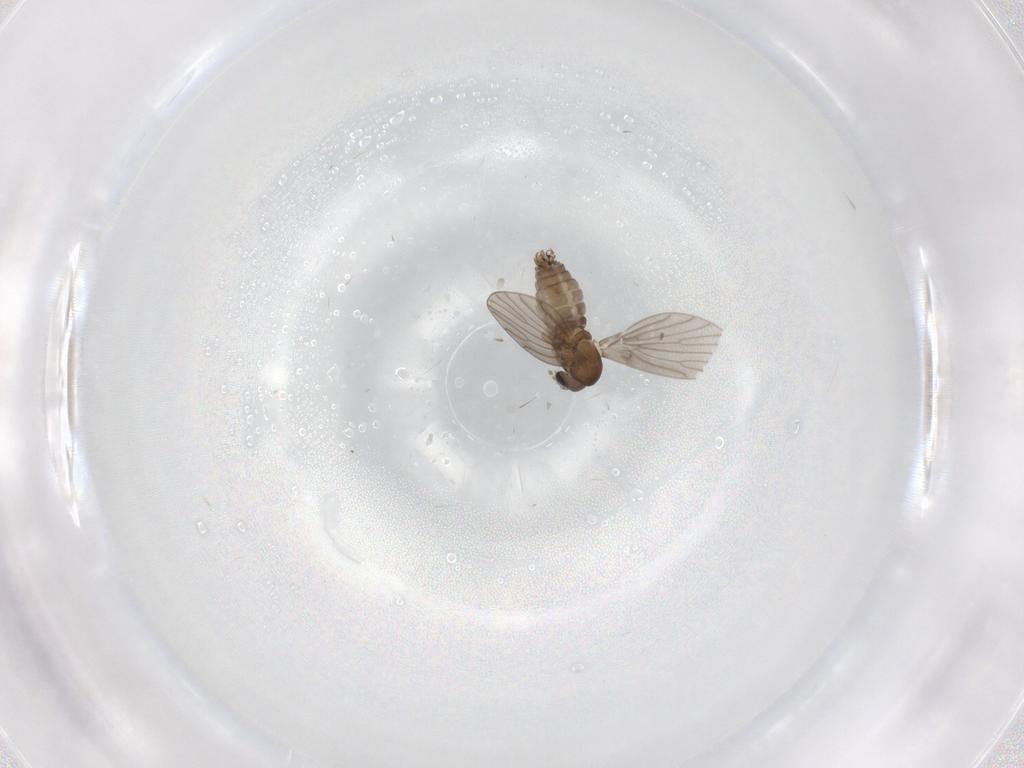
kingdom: Animalia
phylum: Arthropoda
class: Insecta
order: Diptera
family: Psychodidae
